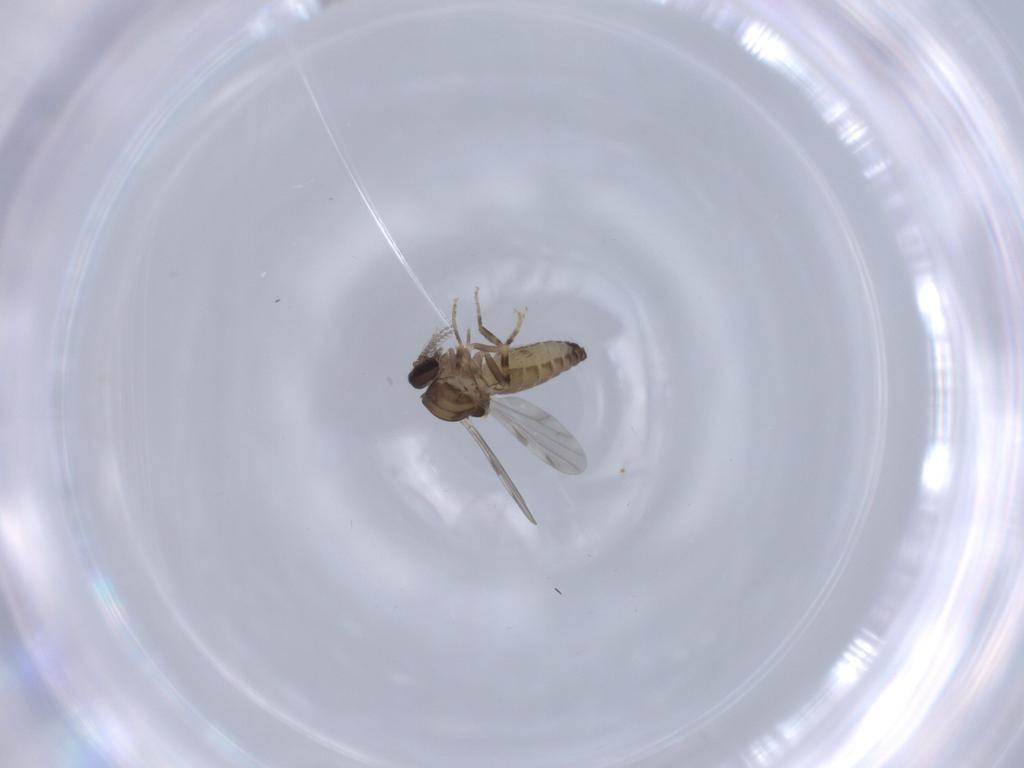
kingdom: Animalia
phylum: Arthropoda
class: Insecta
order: Diptera
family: Ceratopogonidae
